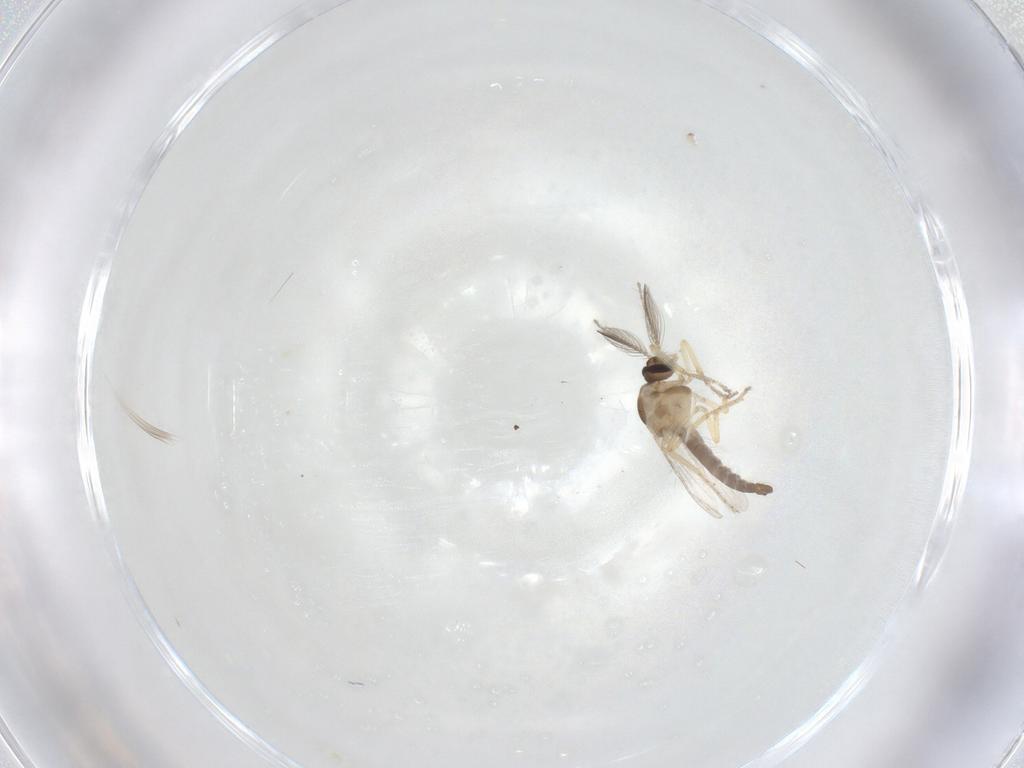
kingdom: Animalia
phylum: Arthropoda
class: Insecta
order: Diptera
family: Ceratopogonidae
